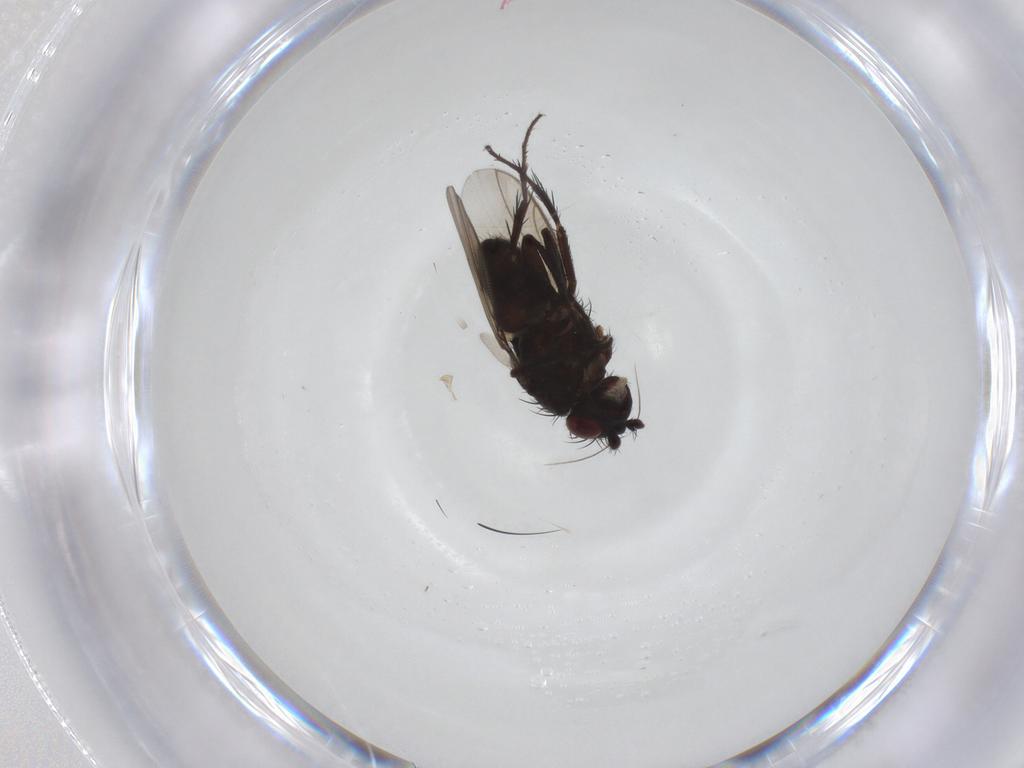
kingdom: Animalia
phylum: Arthropoda
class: Insecta
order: Diptera
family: Sphaeroceridae
